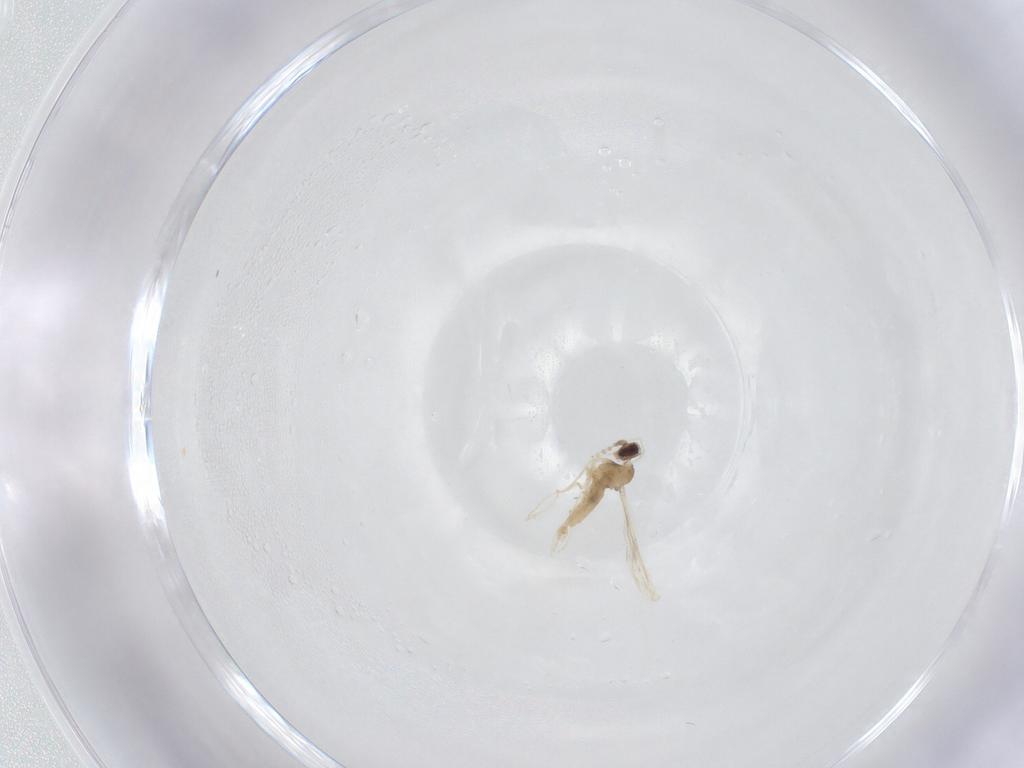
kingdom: Animalia
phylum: Arthropoda
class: Insecta
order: Diptera
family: Cecidomyiidae
